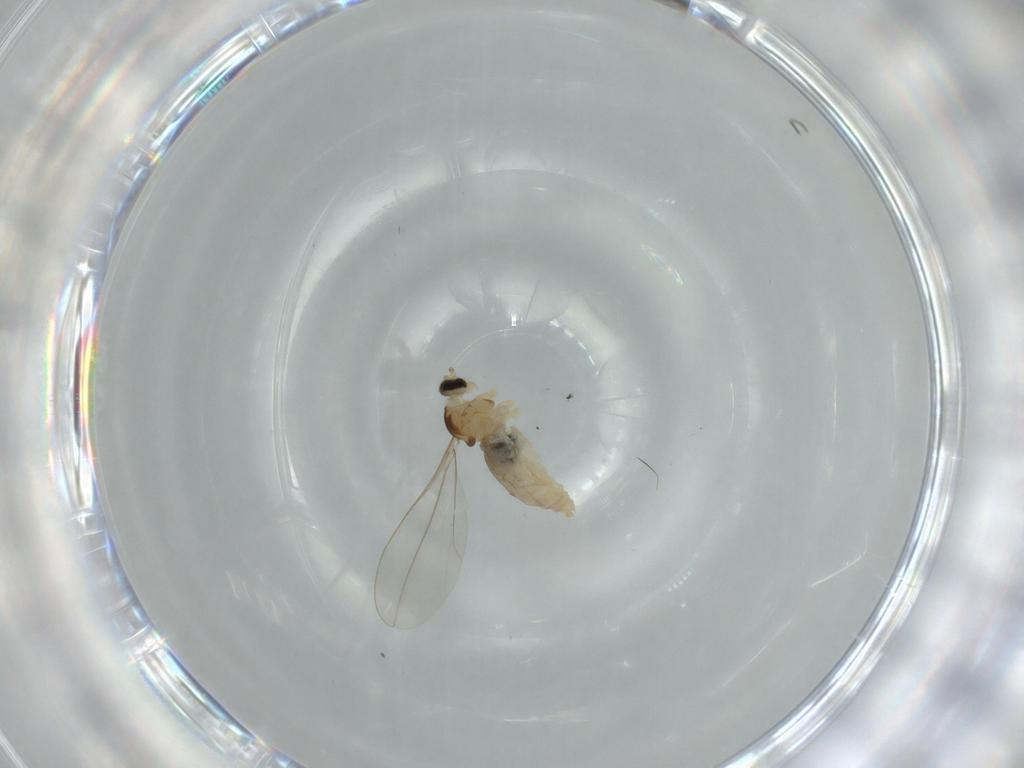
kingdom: Animalia
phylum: Arthropoda
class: Insecta
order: Diptera
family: Cecidomyiidae
